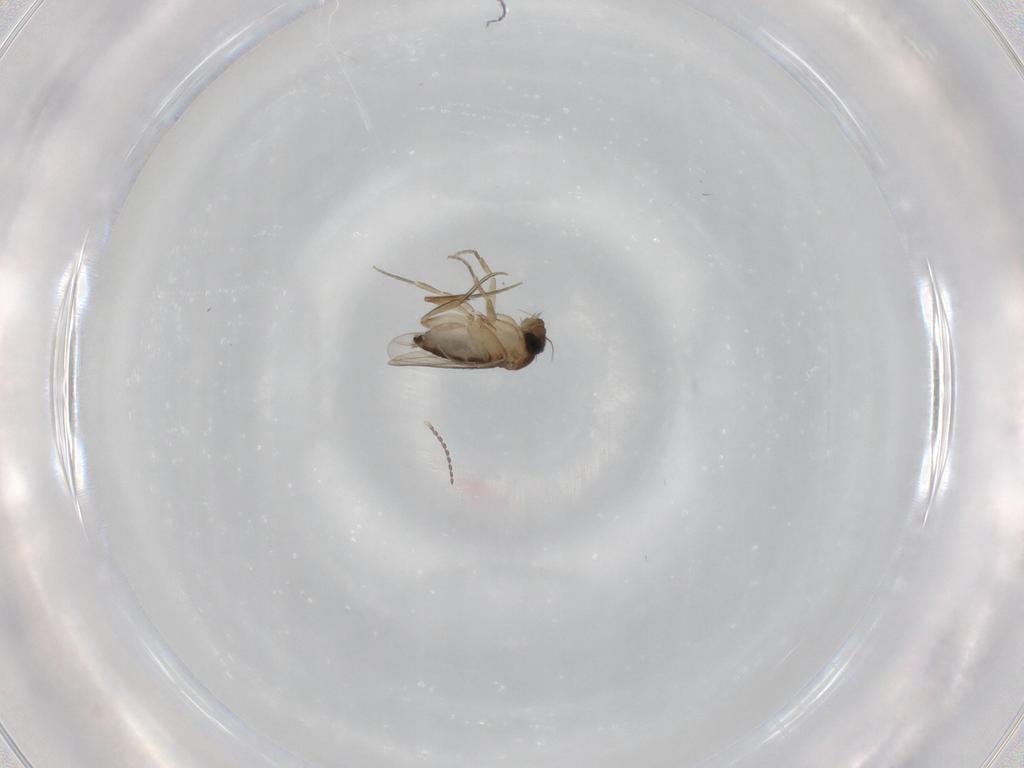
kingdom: Animalia
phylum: Arthropoda
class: Insecta
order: Diptera
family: Phoridae
